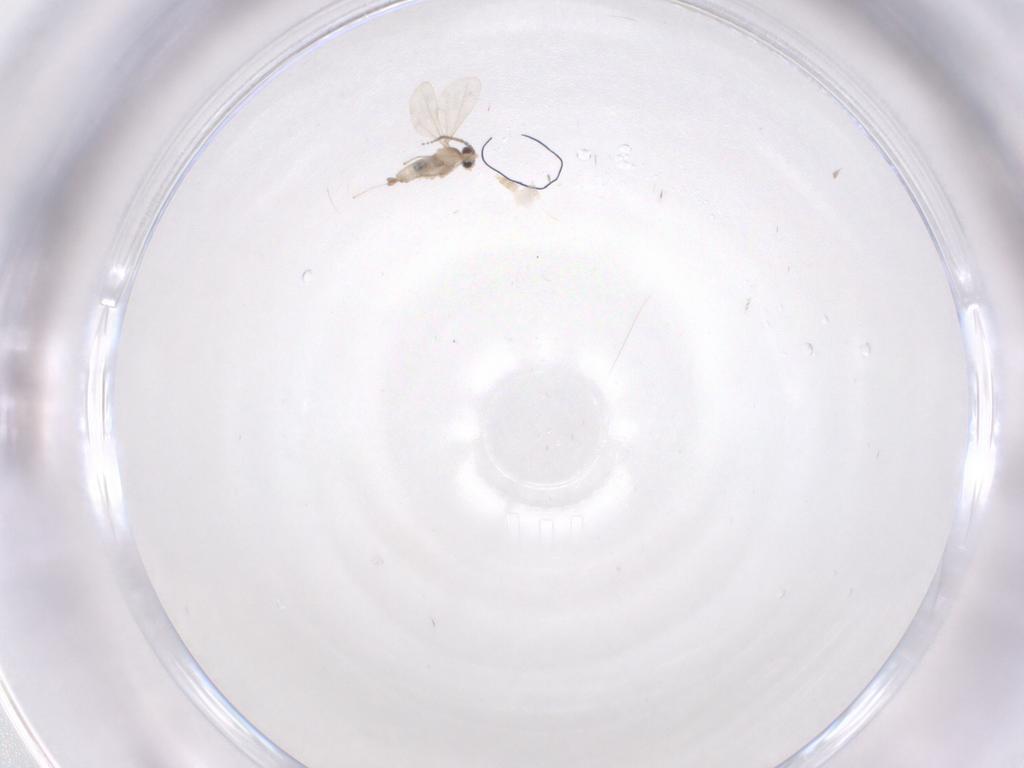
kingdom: Animalia
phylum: Arthropoda
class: Insecta
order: Diptera
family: Cecidomyiidae
